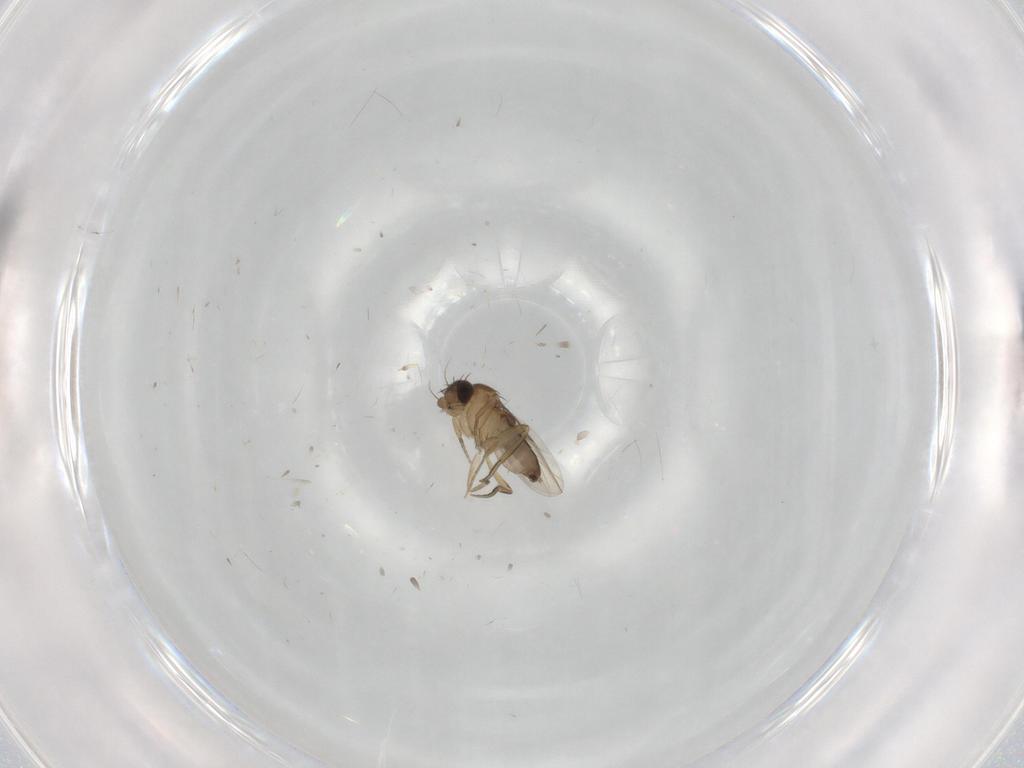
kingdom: Animalia
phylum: Arthropoda
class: Insecta
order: Diptera
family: Phoridae
